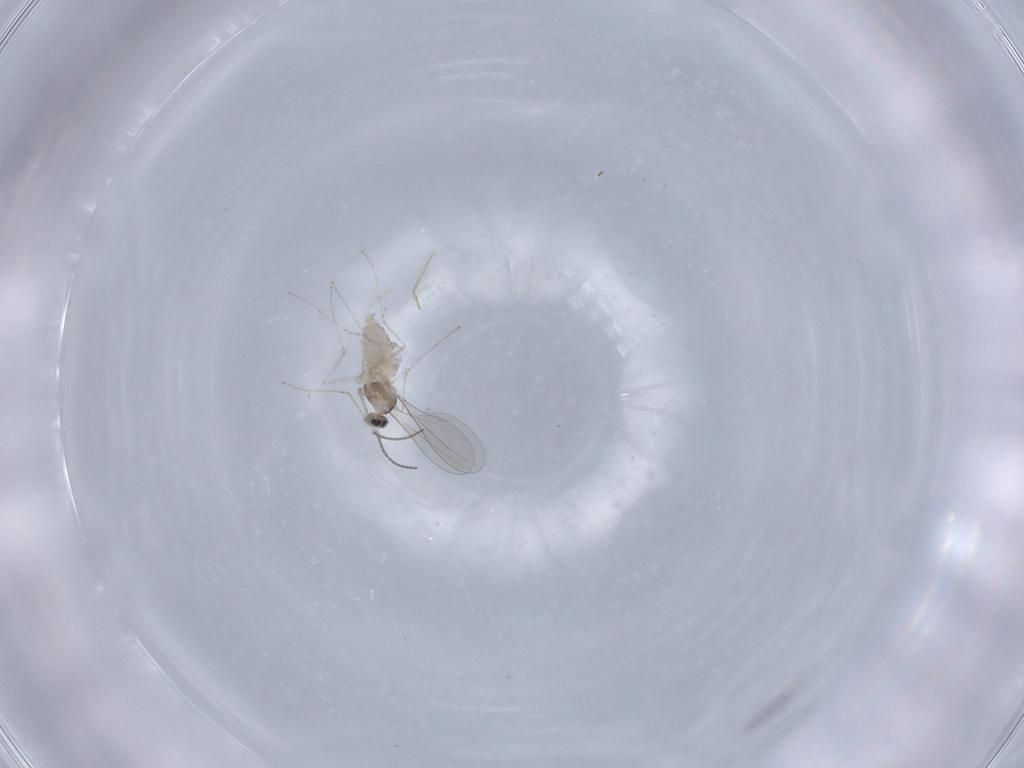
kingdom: Animalia
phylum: Arthropoda
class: Insecta
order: Diptera
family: Cecidomyiidae
